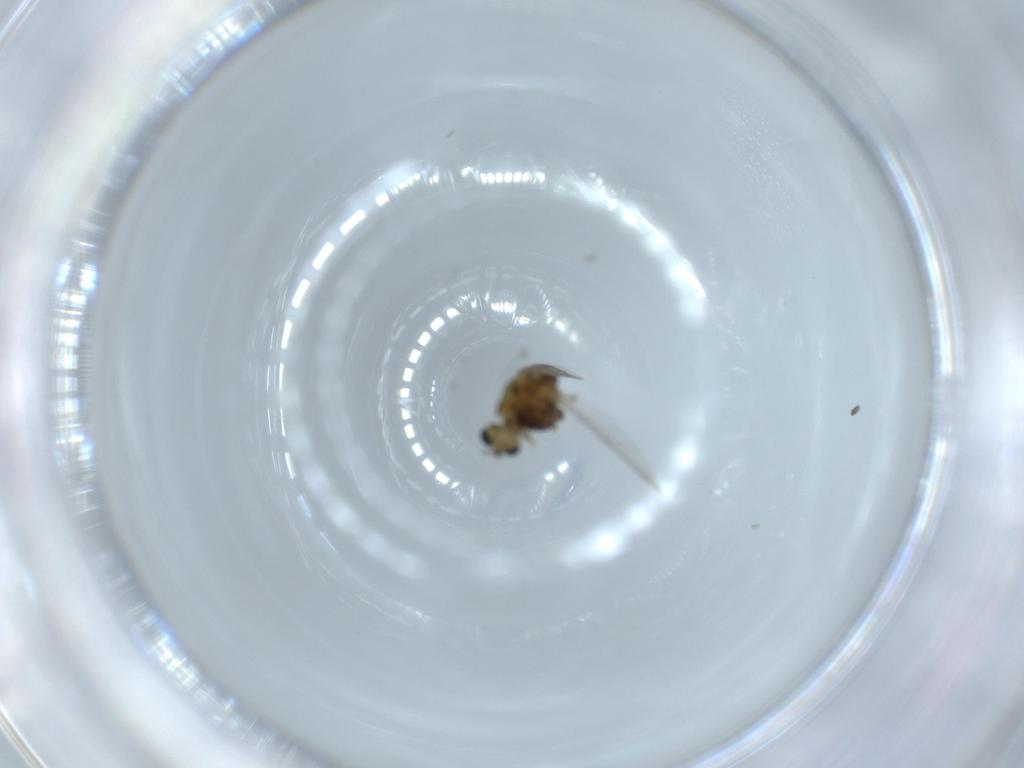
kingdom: Animalia
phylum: Arthropoda
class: Insecta
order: Diptera
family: Chironomidae
